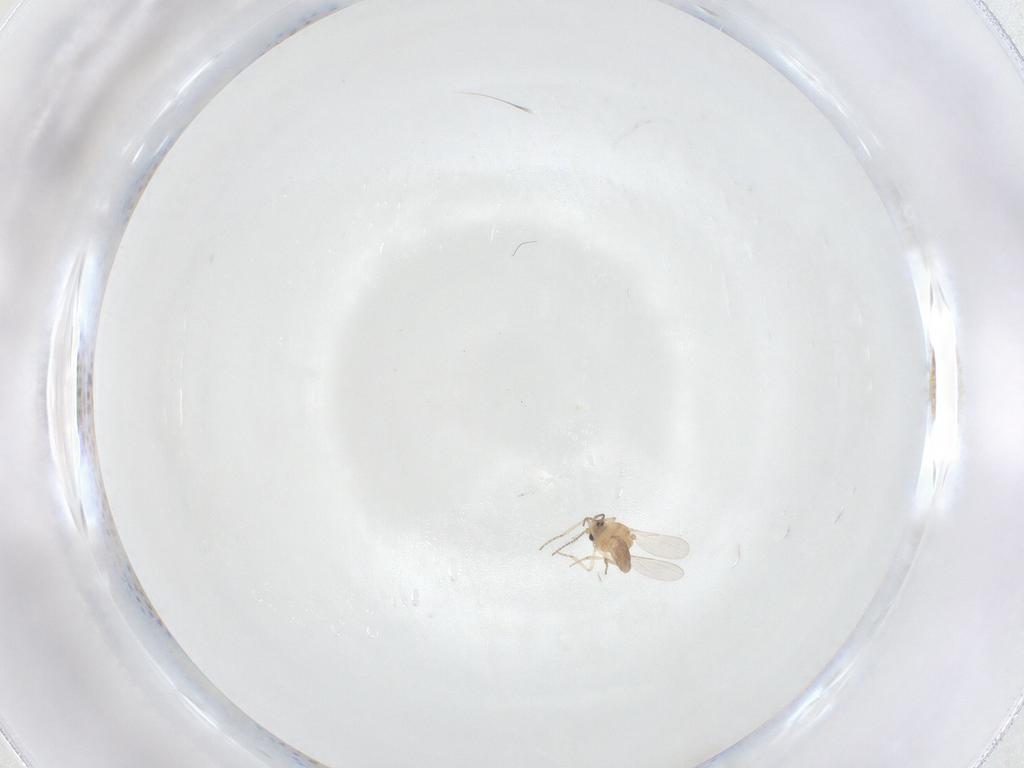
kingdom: Animalia
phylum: Arthropoda
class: Insecta
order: Diptera
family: Ceratopogonidae
